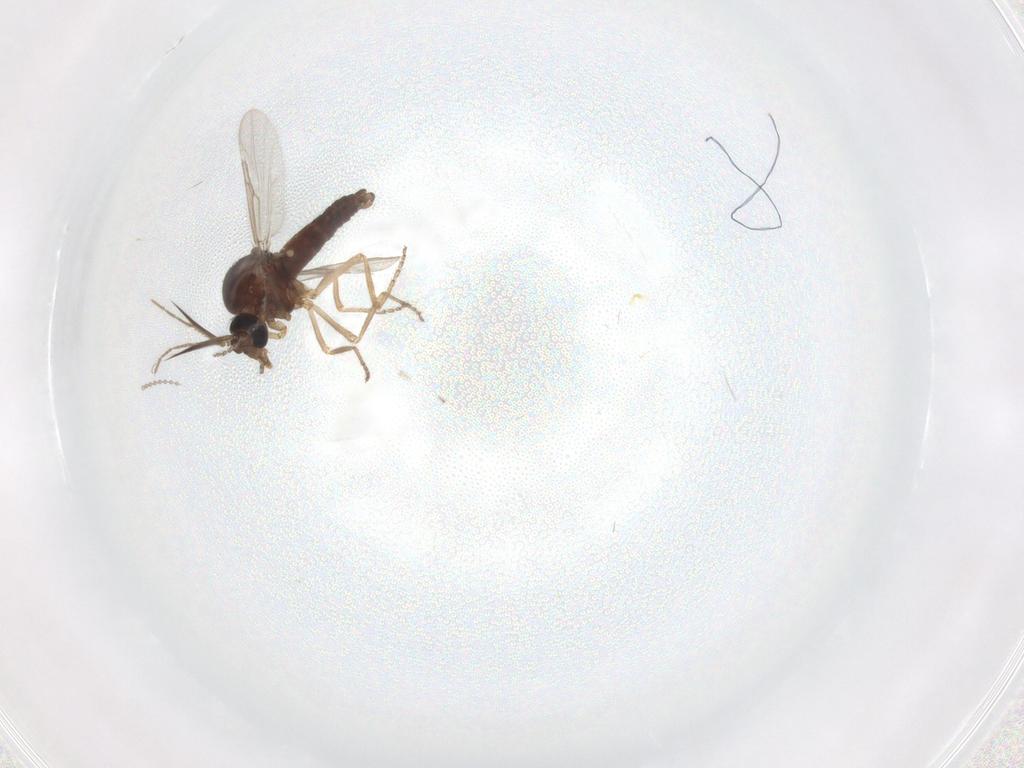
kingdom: Animalia
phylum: Arthropoda
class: Insecta
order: Diptera
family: Ceratopogonidae
